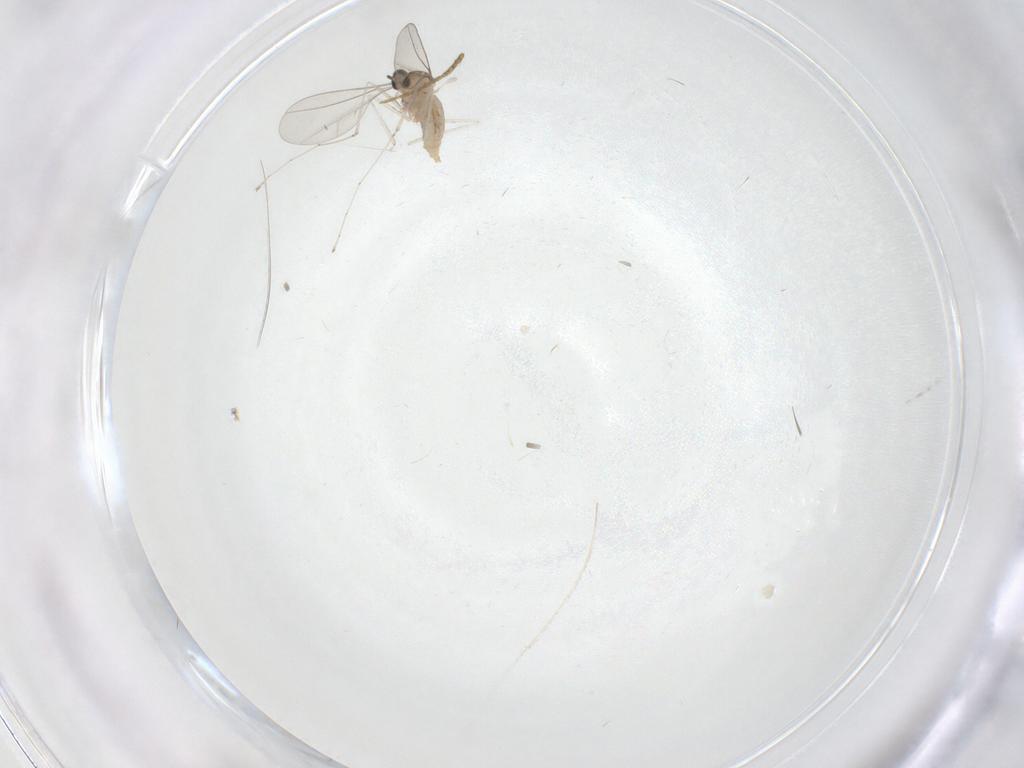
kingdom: Animalia
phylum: Arthropoda
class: Insecta
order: Diptera
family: Cecidomyiidae
